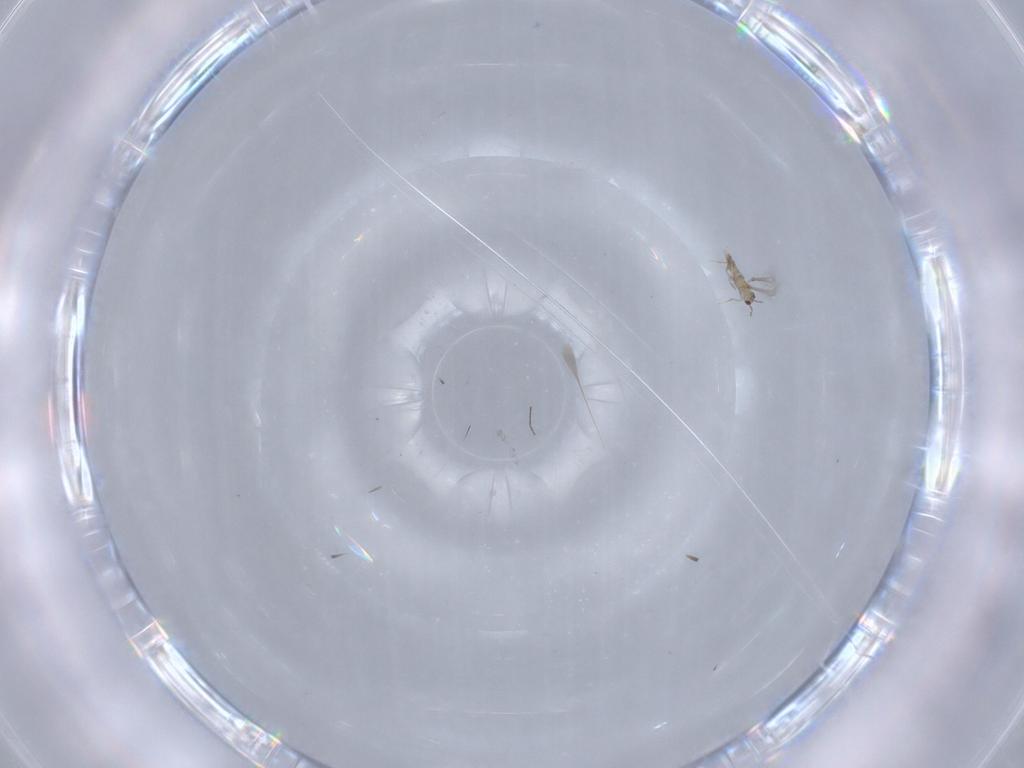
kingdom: Animalia
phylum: Arthropoda
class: Insecta
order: Hymenoptera
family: Mymaridae
